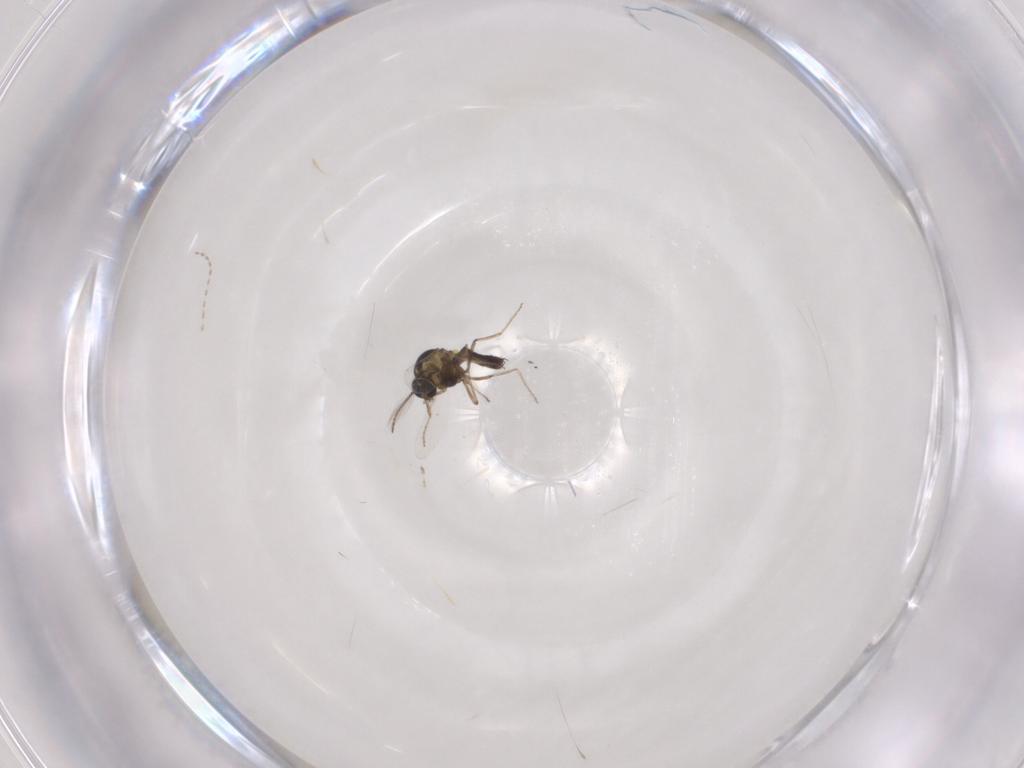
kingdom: Animalia
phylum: Arthropoda
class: Insecta
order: Diptera
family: Ceratopogonidae
